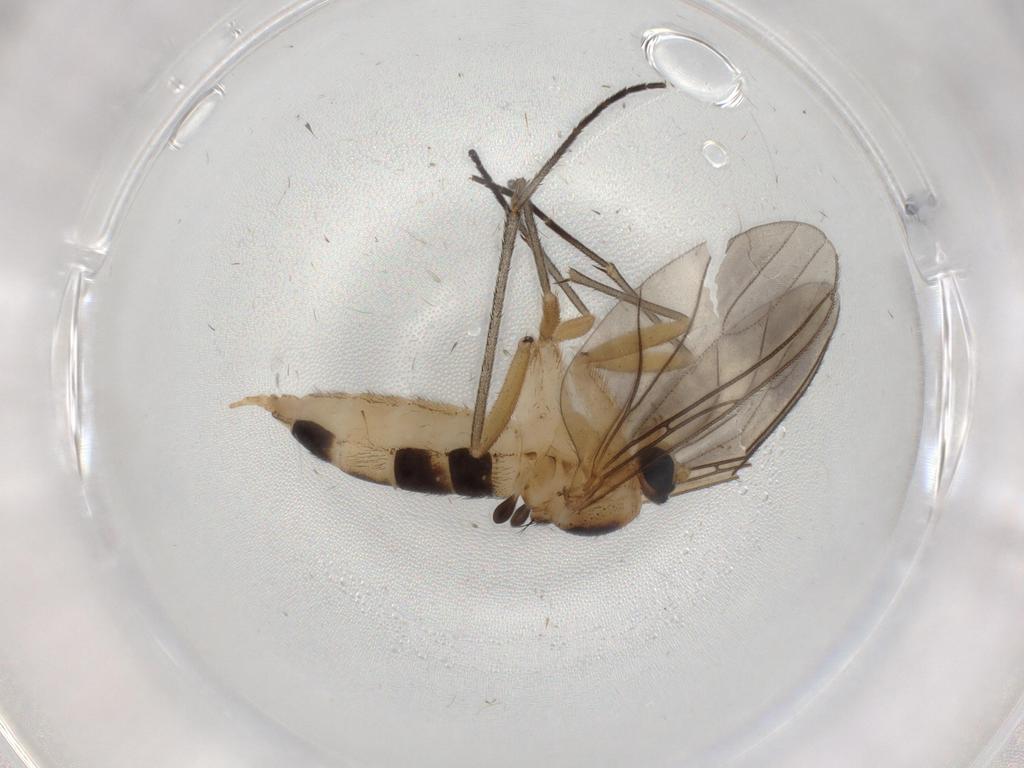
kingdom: Animalia
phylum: Arthropoda
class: Insecta
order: Diptera
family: Sciaridae
